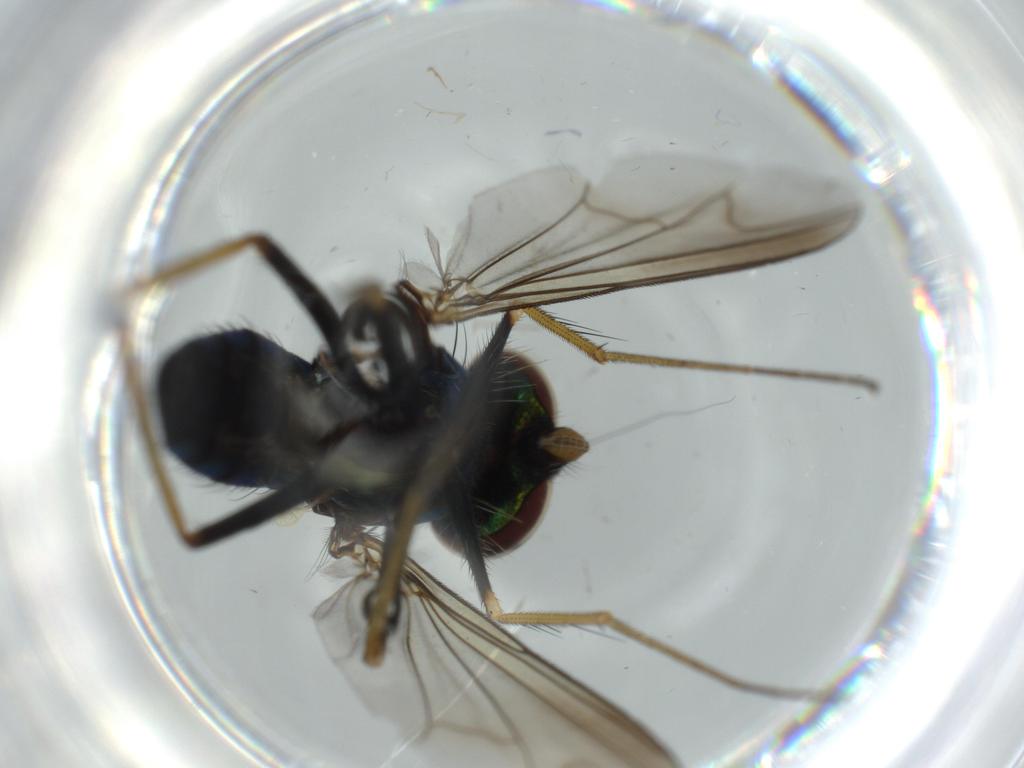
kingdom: Animalia
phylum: Arthropoda
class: Insecta
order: Diptera
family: Dolichopodidae
